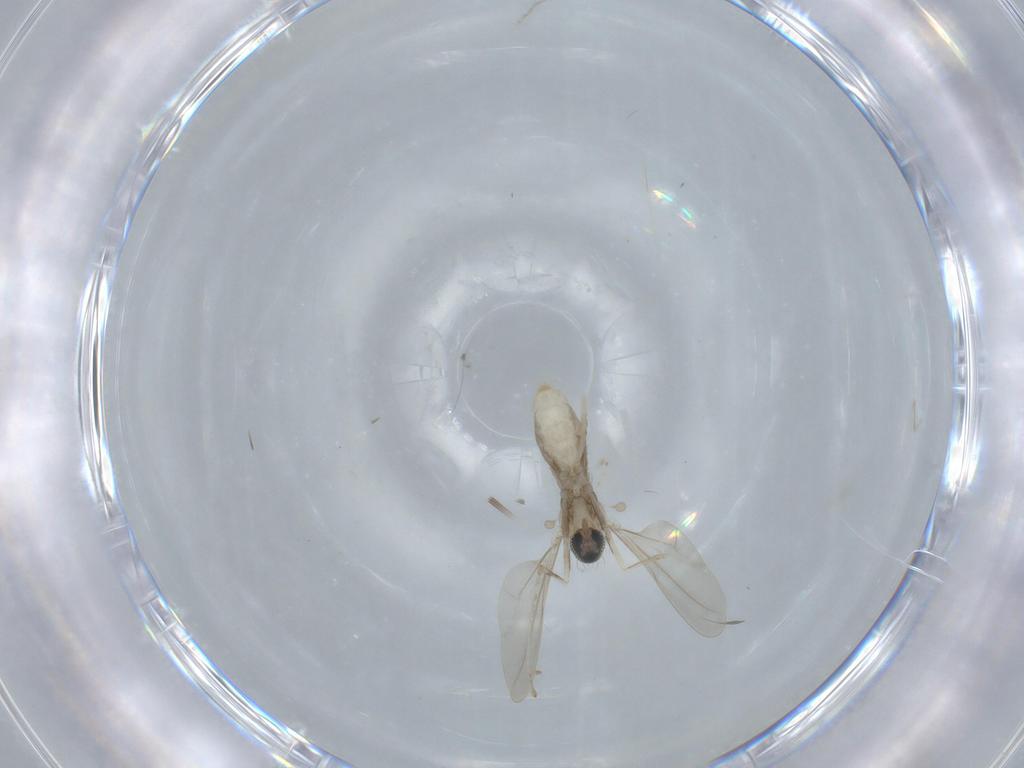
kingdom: Animalia
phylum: Arthropoda
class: Insecta
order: Diptera
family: Cecidomyiidae
